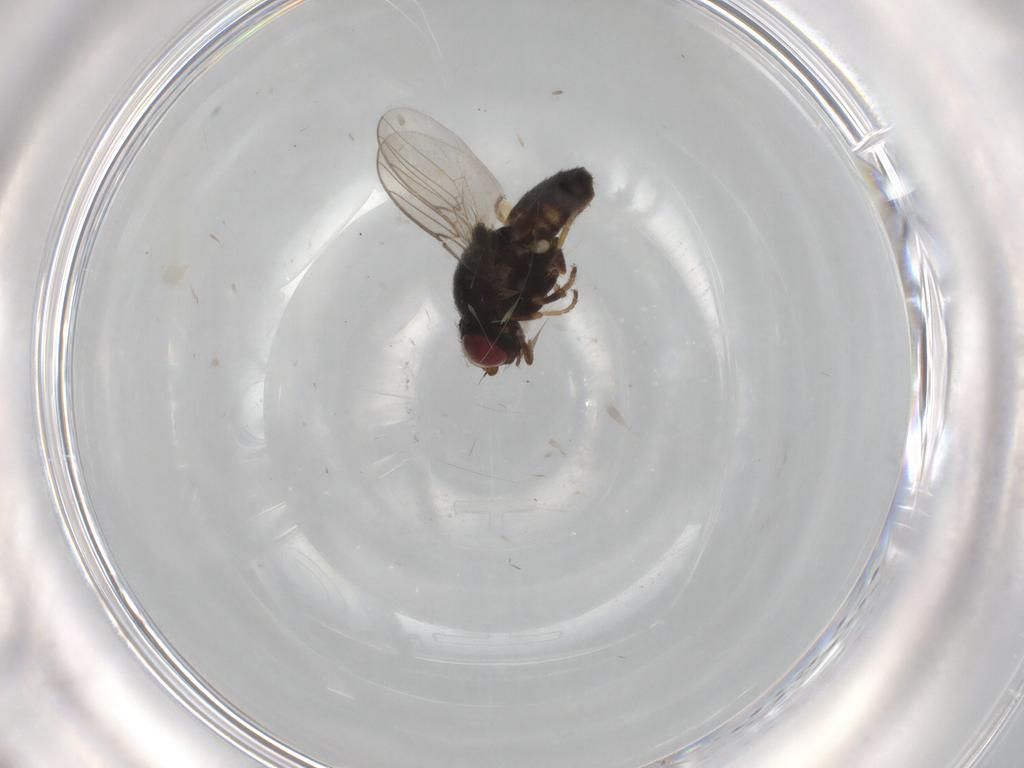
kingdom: Animalia
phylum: Arthropoda
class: Insecta
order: Diptera
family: Chloropidae
